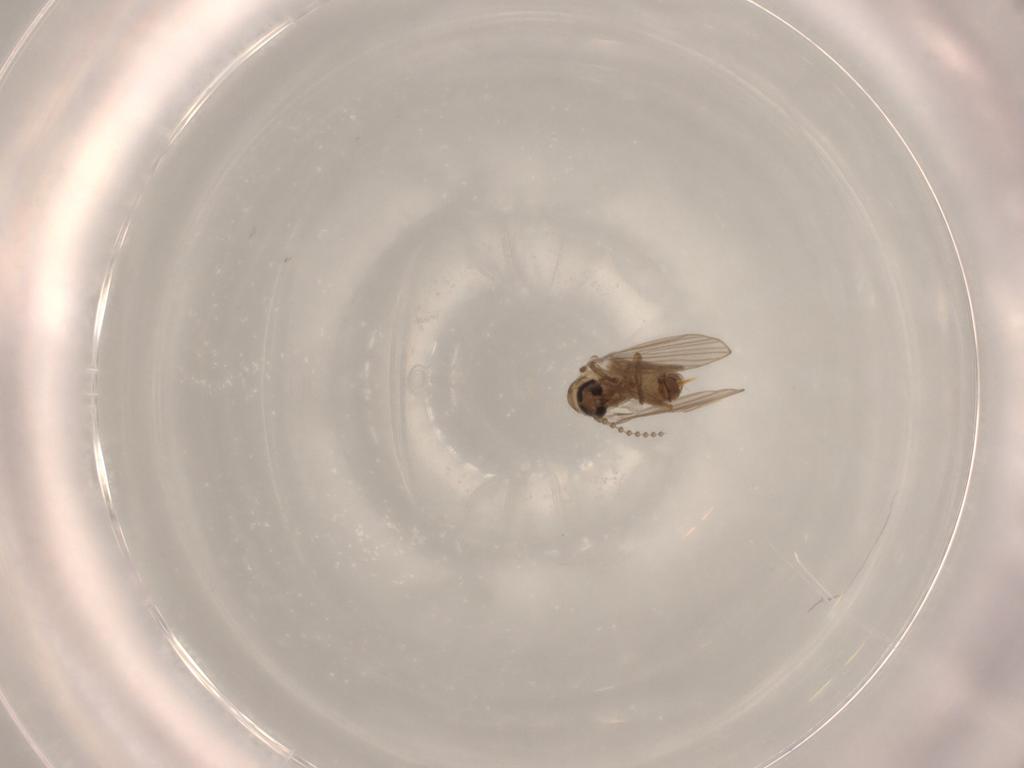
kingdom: Animalia
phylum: Arthropoda
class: Insecta
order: Diptera
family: Psychodidae
